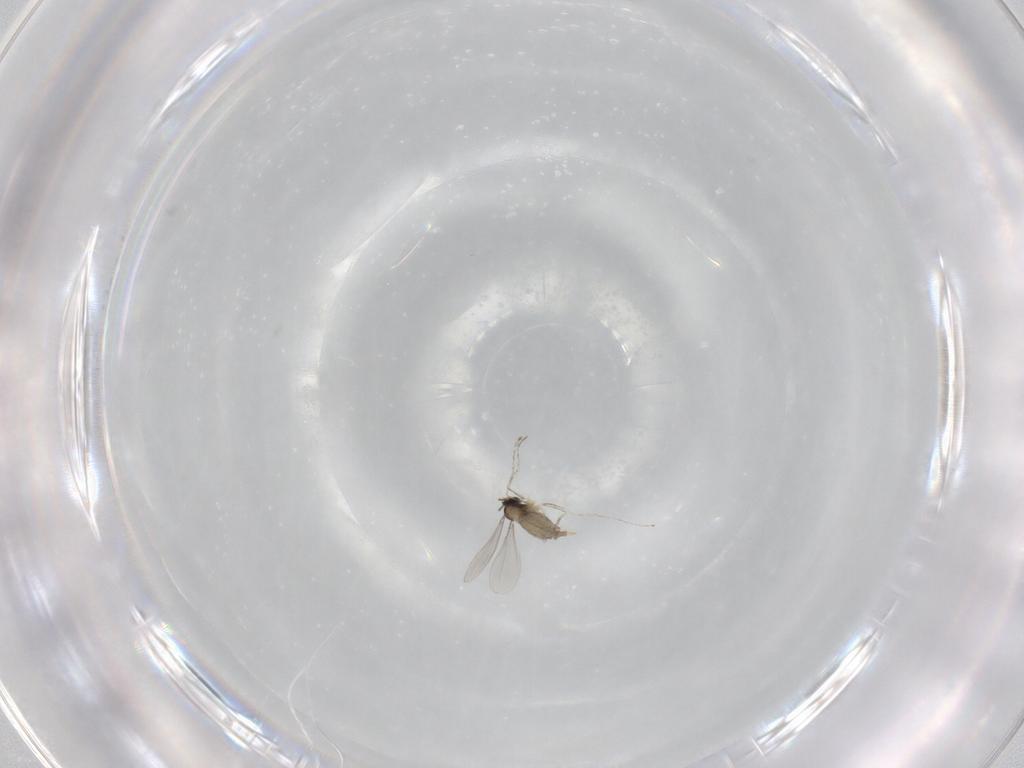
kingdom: Animalia
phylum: Arthropoda
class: Insecta
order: Diptera
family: Cecidomyiidae
